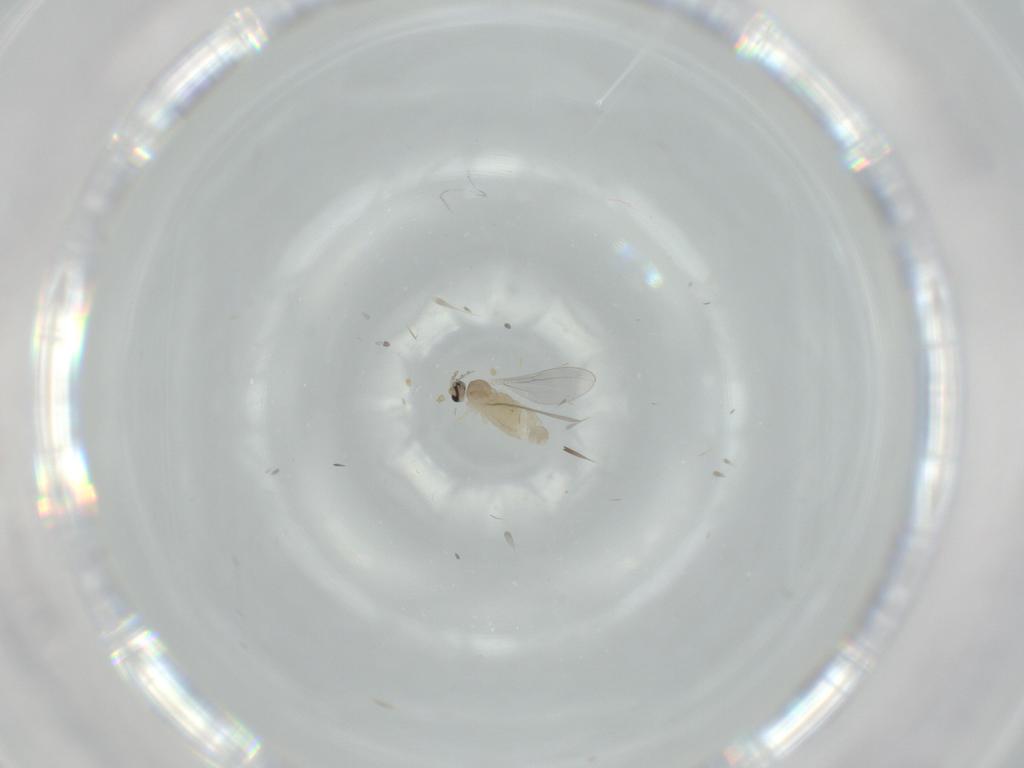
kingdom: Animalia
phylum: Arthropoda
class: Insecta
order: Diptera
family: Cecidomyiidae
